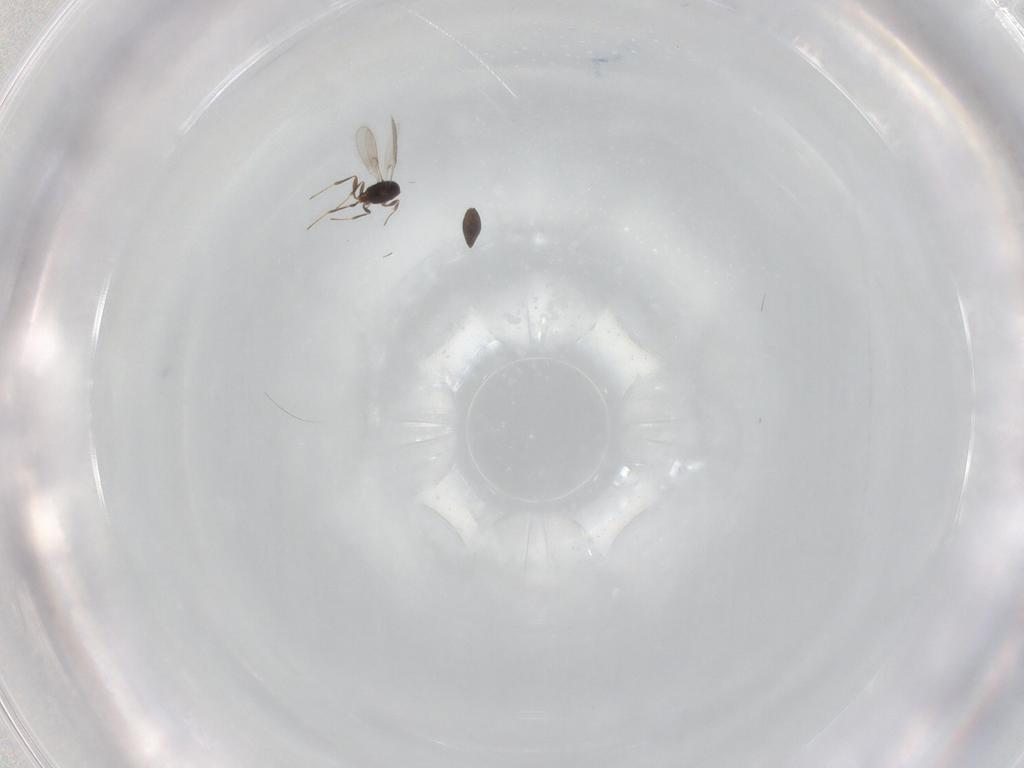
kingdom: Animalia
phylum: Arthropoda
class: Insecta
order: Hymenoptera
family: Scelionidae
